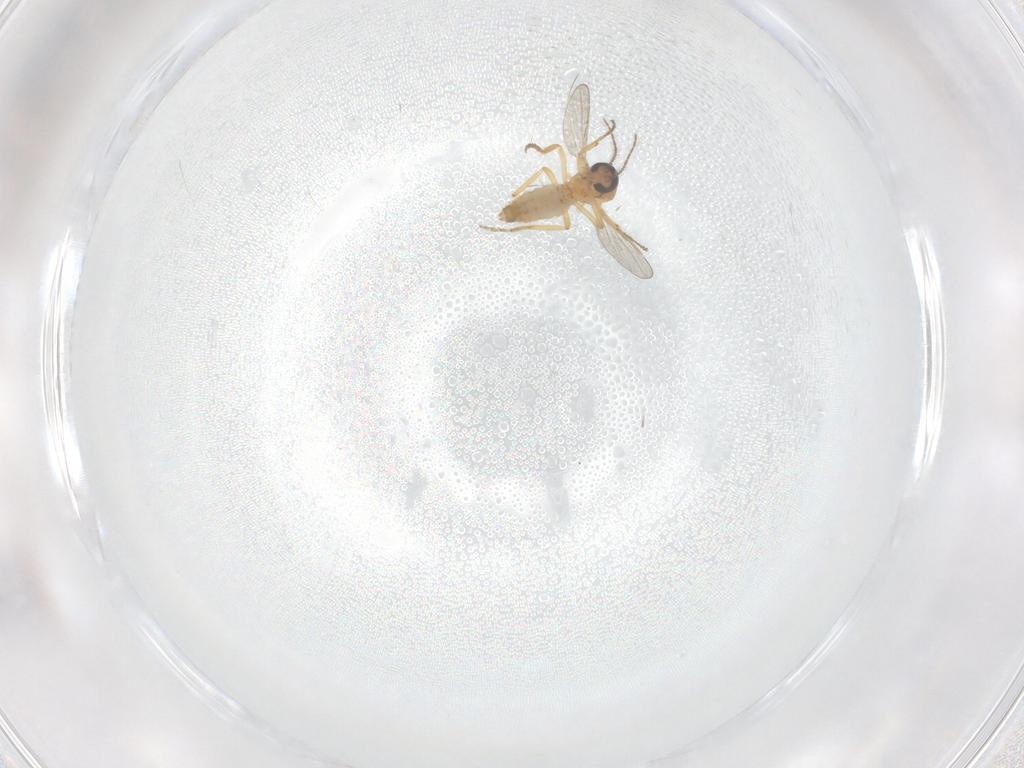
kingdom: Animalia
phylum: Arthropoda
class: Insecta
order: Diptera
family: Ceratopogonidae
